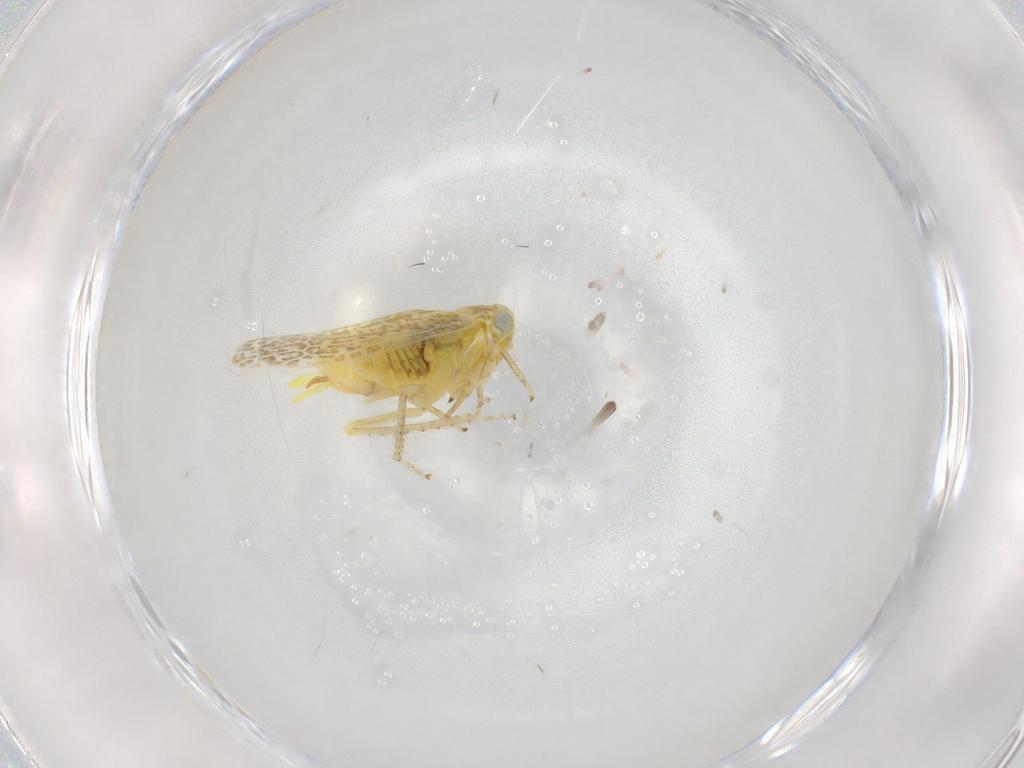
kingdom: Animalia
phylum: Arthropoda
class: Insecta
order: Hemiptera
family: Cicadellidae
